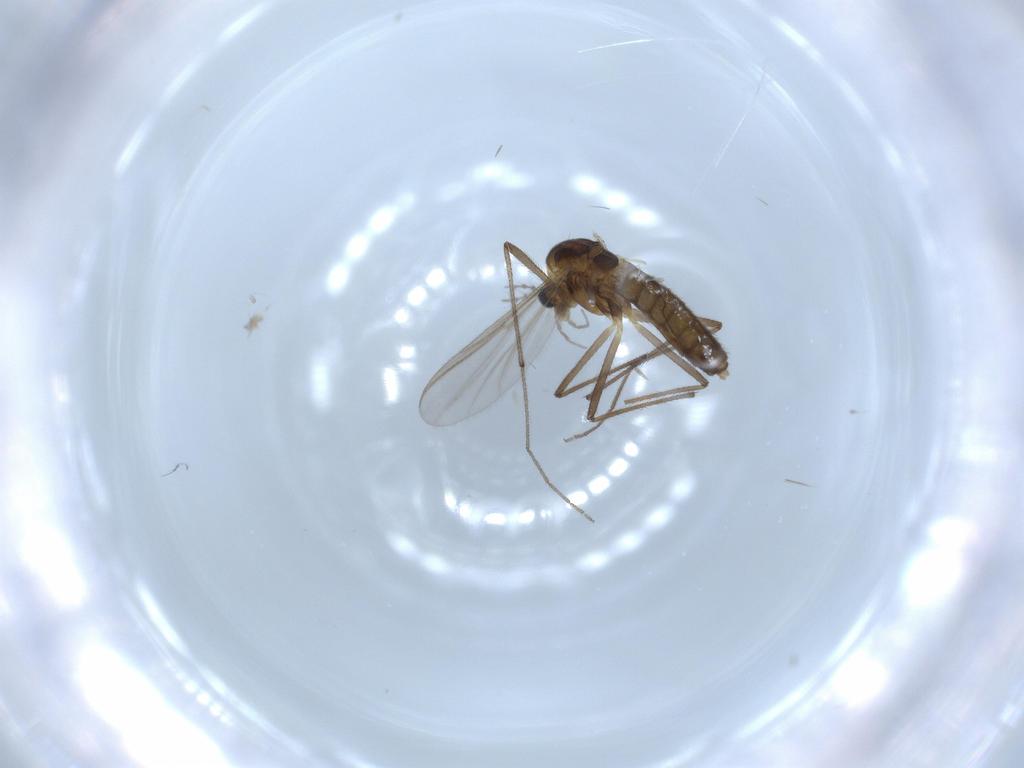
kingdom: Animalia
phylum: Arthropoda
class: Insecta
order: Diptera
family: Chironomidae
